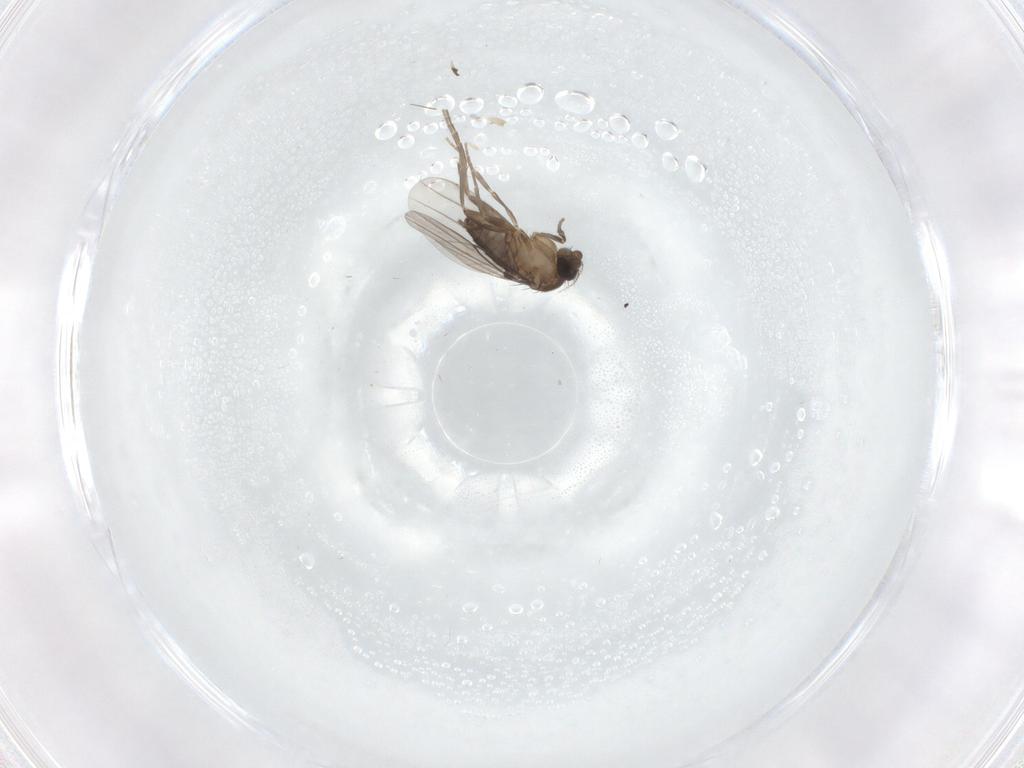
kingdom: Animalia
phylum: Arthropoda
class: Insecta
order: Diptera
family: Phoridae
